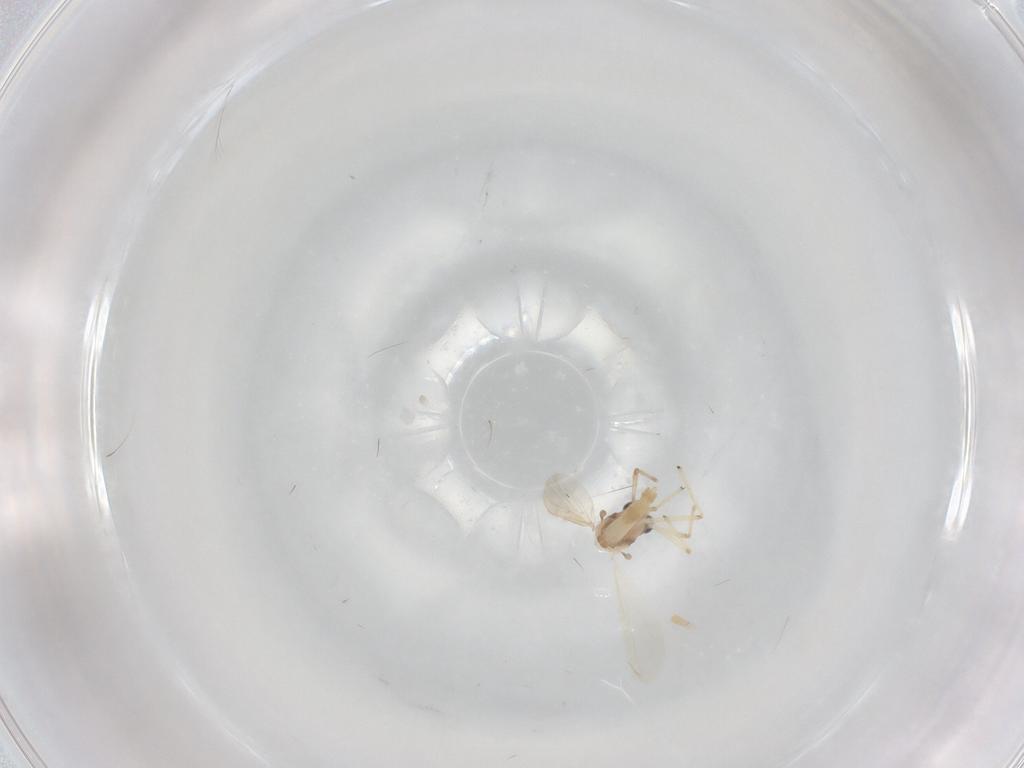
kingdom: Animalia
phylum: Arthropoda
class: Insecta
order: Diptera
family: Chironomidae
